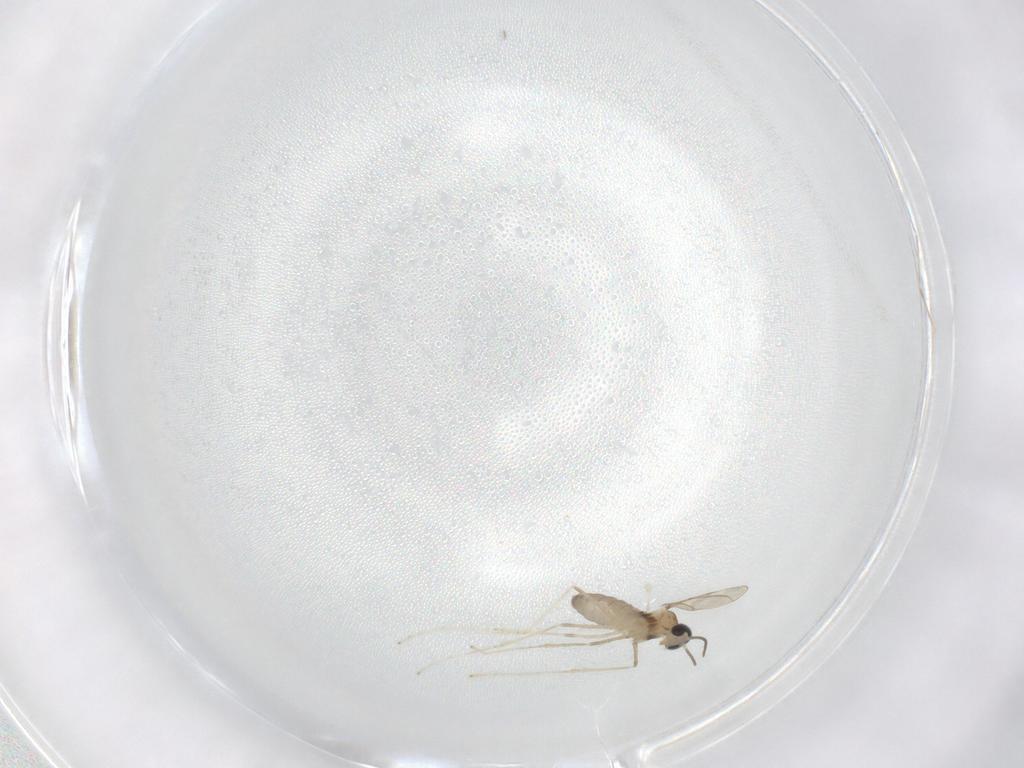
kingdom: Animalia
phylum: Arthropoda
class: Insecta
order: Diptera
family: Cecidomyiidae
